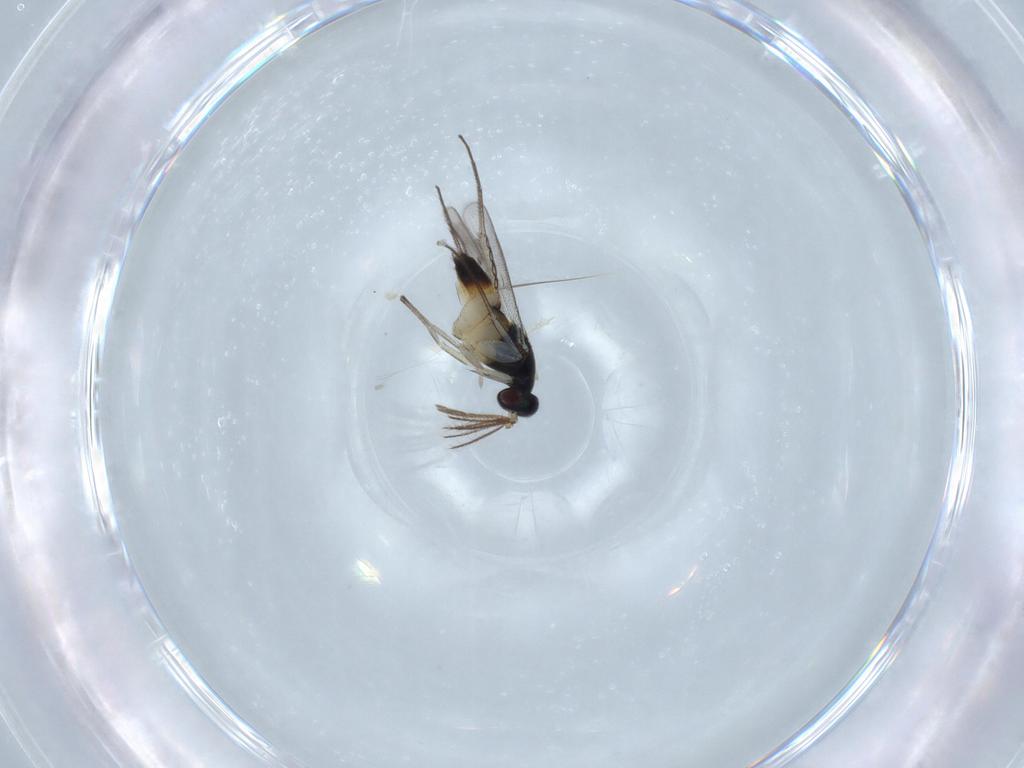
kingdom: Animalia
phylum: Arthropoda
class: Insecta
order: Hymenoptera
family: Eulophidae
